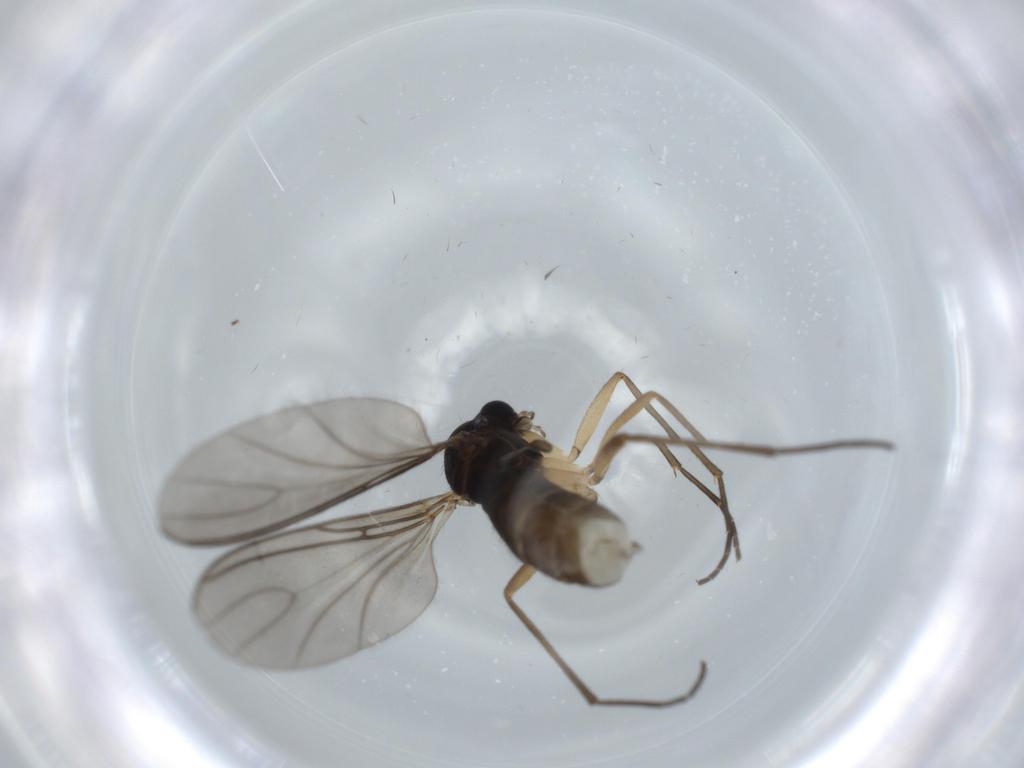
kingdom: Animalia
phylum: Arthropoda
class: Insecta
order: Diptera
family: Sciaridae
